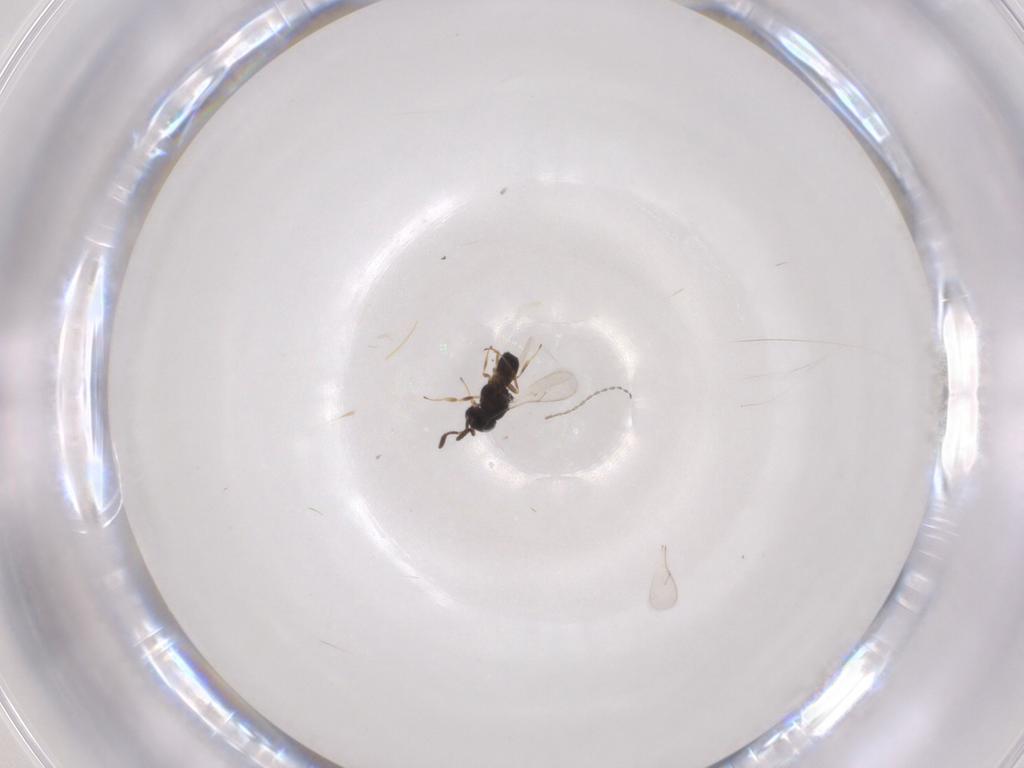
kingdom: Animalia
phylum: Arthropoda
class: Insecta
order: Hymenoptera
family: Scelionidae
